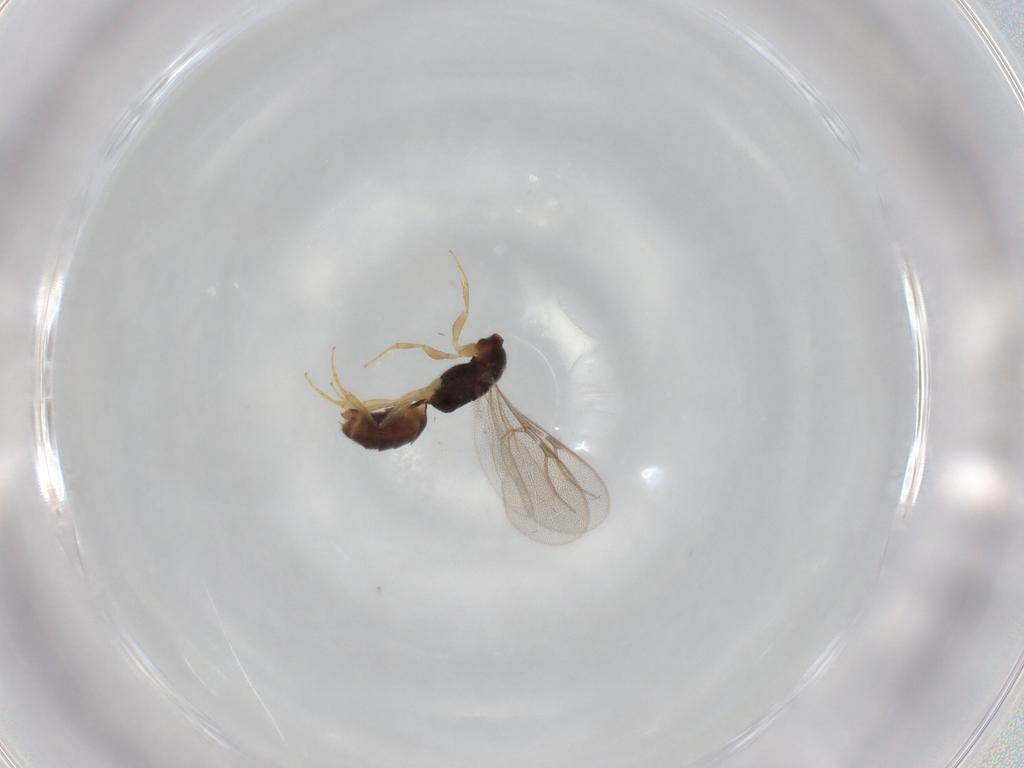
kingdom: Animalia
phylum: Arthropoda
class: Insecta
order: Hymenoptera
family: Bethylidae
